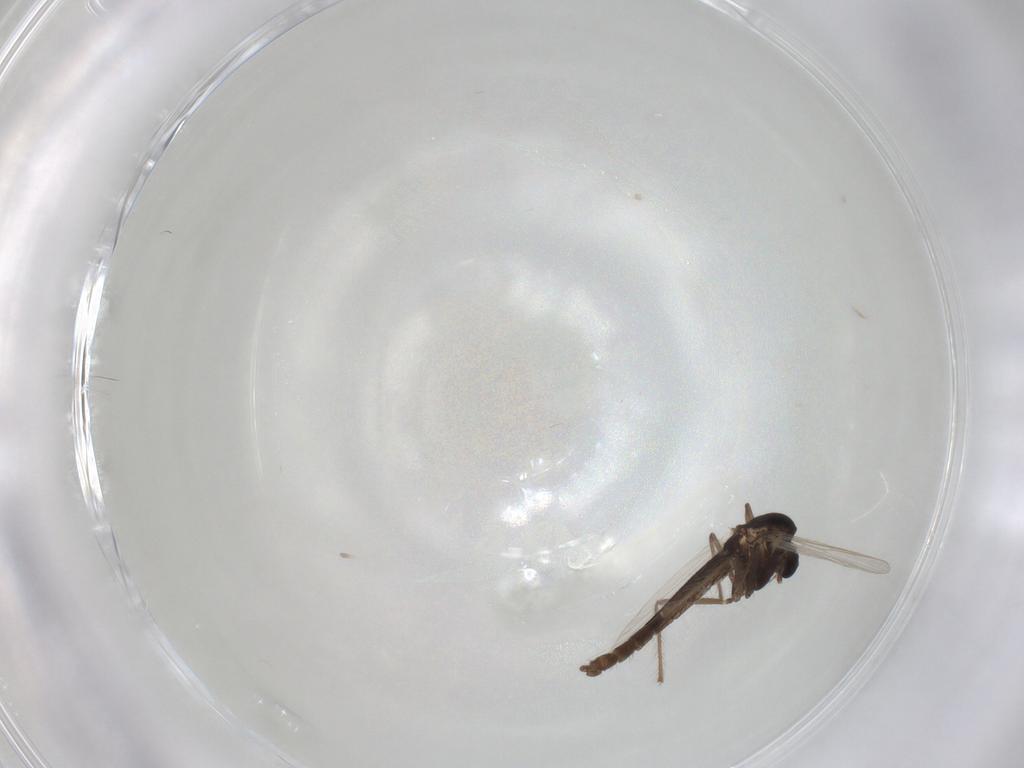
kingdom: Animalia
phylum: Arthropoda
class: Insecta
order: Diptera
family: Chironomidae
